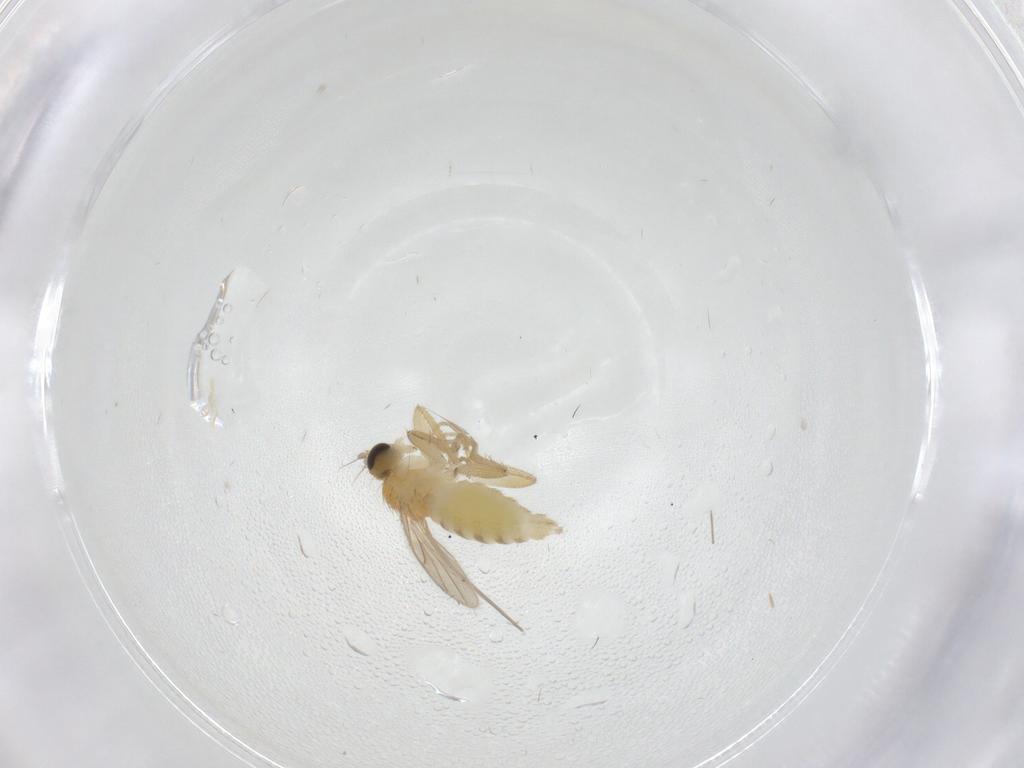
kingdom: Animalia
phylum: Arthropoda
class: Insecta
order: Diptera
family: Hybotidae
